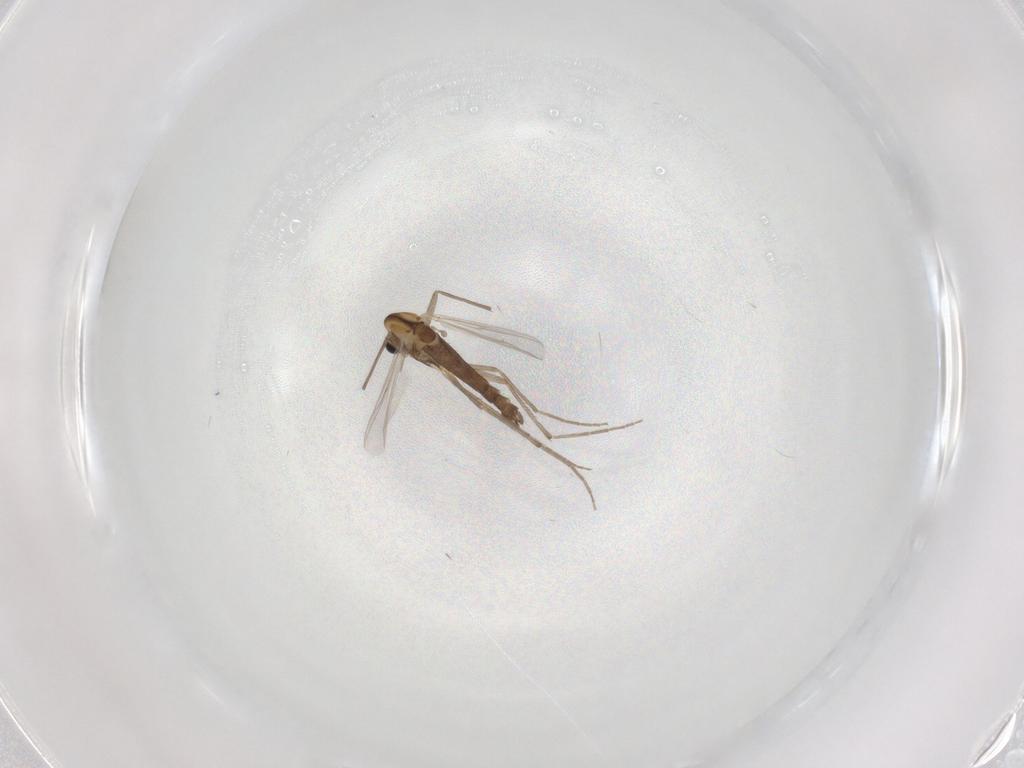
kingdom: Animalia
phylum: Arthropoda
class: Insecta
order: Diptera
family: Chironomidae
